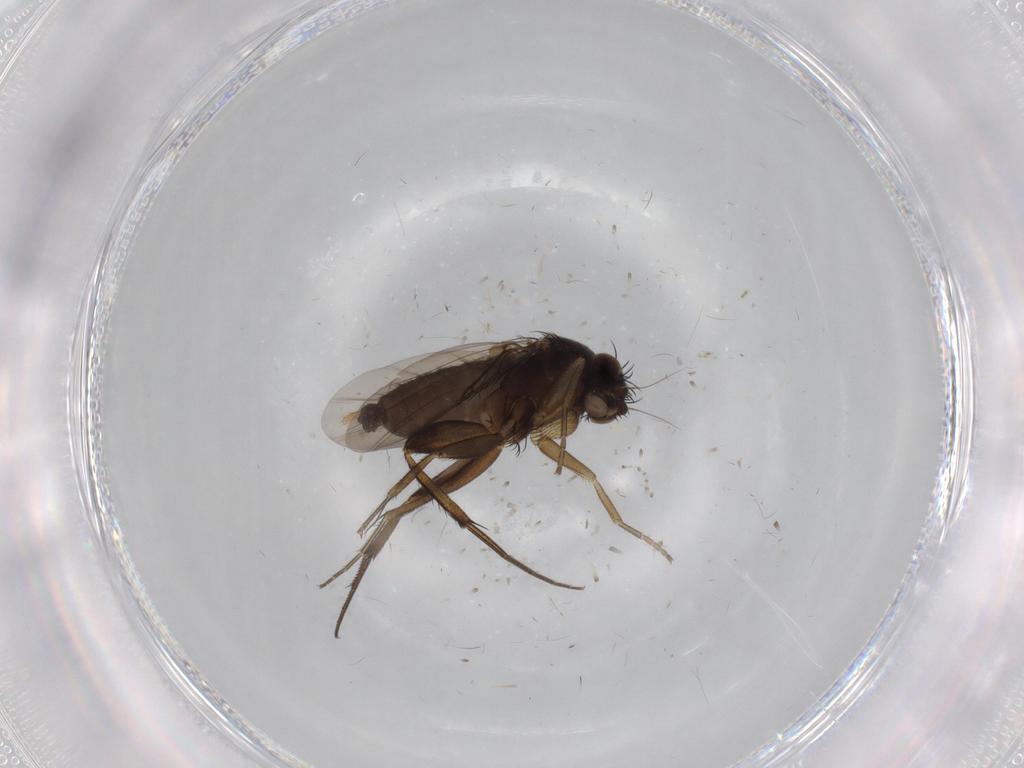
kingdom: Animalia
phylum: Arthropoda
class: Insecta
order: Diptera
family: Phoridae
